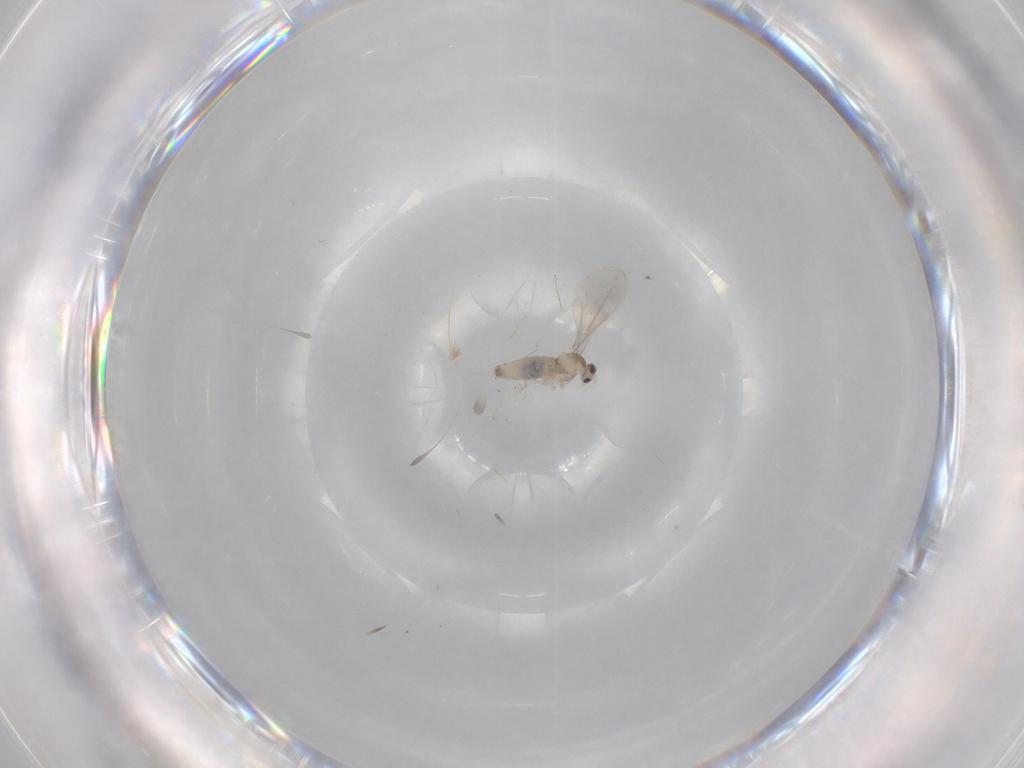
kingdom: Animalia
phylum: Arthropoda
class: Insecta
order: Diptera
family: Cecidomyiidae
